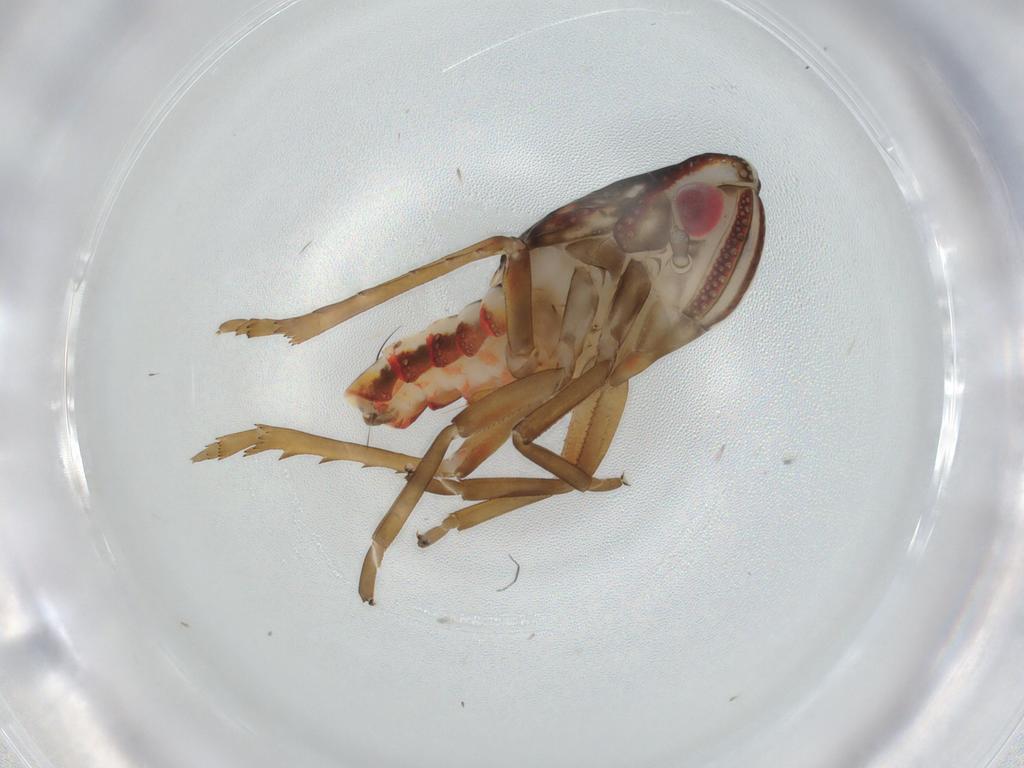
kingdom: Animalia
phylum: Arthropoda
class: Insecta
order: Hemiptera
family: Nogodinidae
